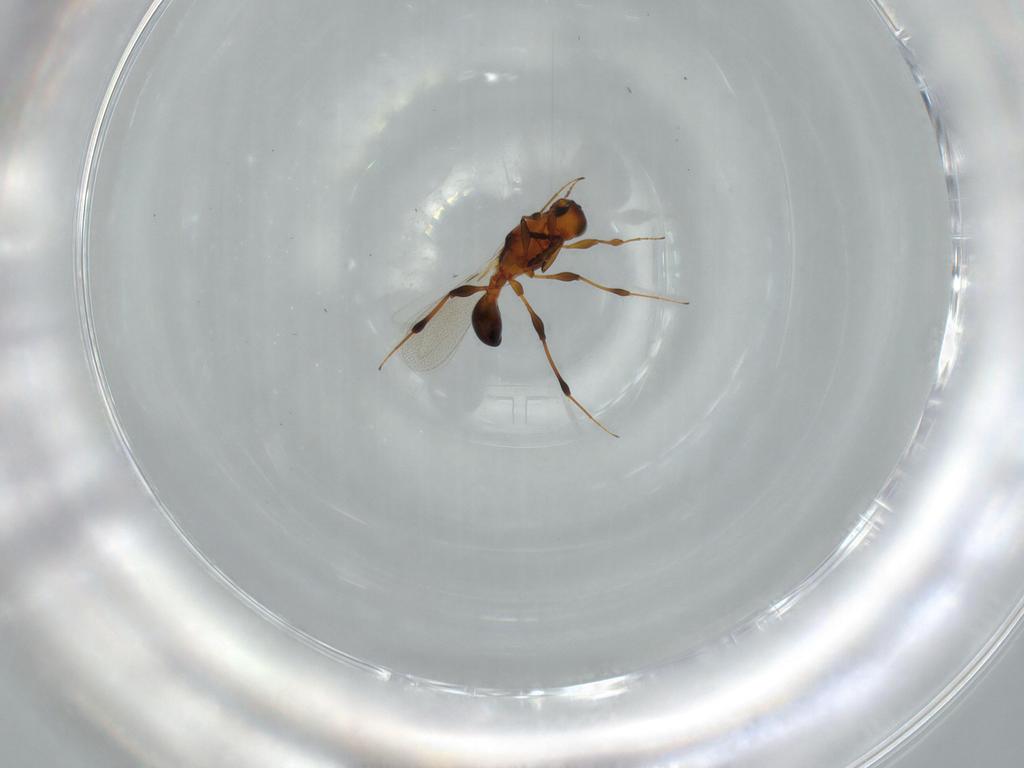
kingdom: Animalia
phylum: Arthropoda
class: Insecta
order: Hymenoptera
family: Platygastridae
